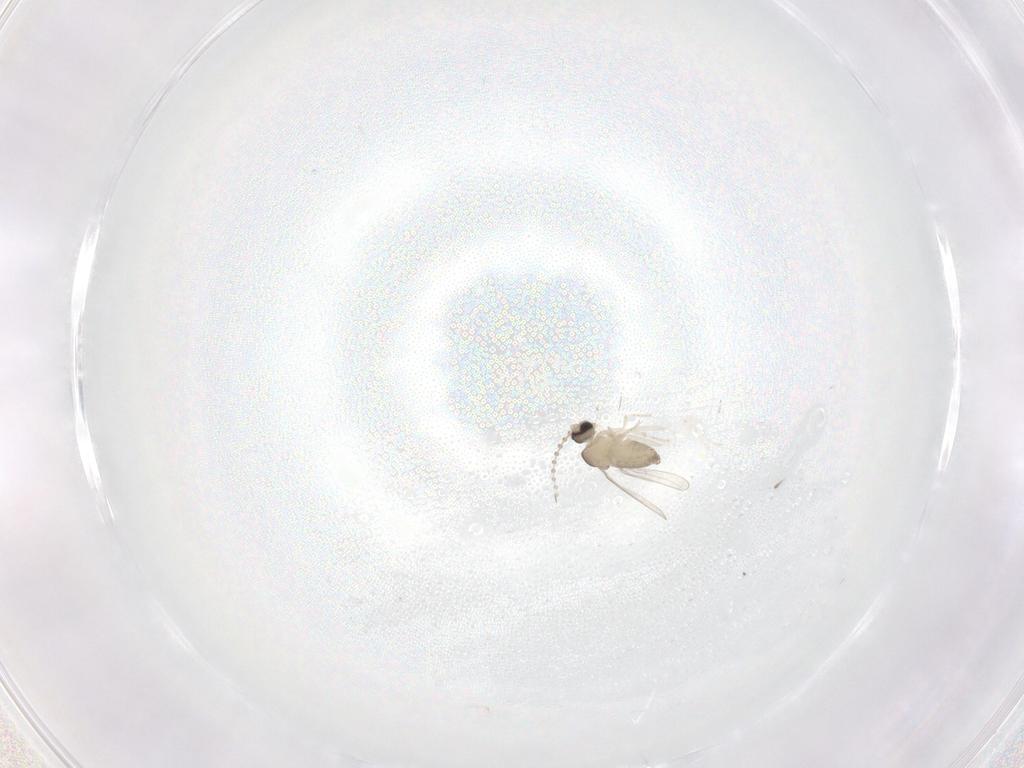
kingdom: Animalia
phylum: Arthropoda
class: Insecta
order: Diptera
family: Cecidomyiidae
